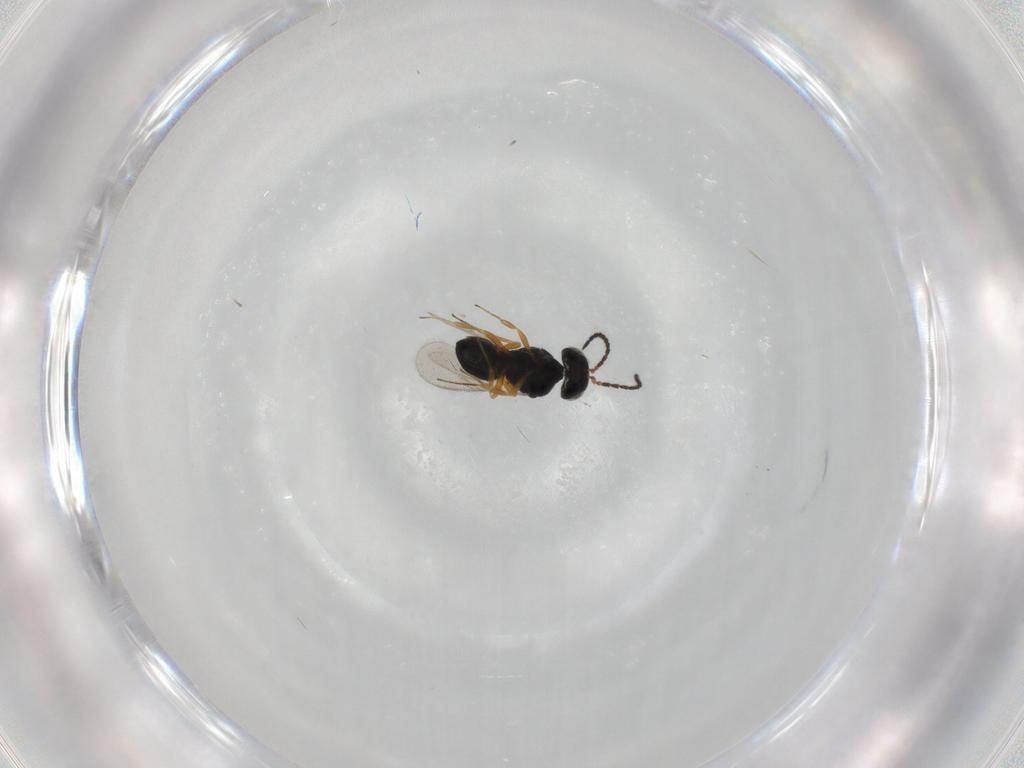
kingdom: Animalia
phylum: Arthropoda
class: Insecta
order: Hymenoptera
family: Scelionidae
